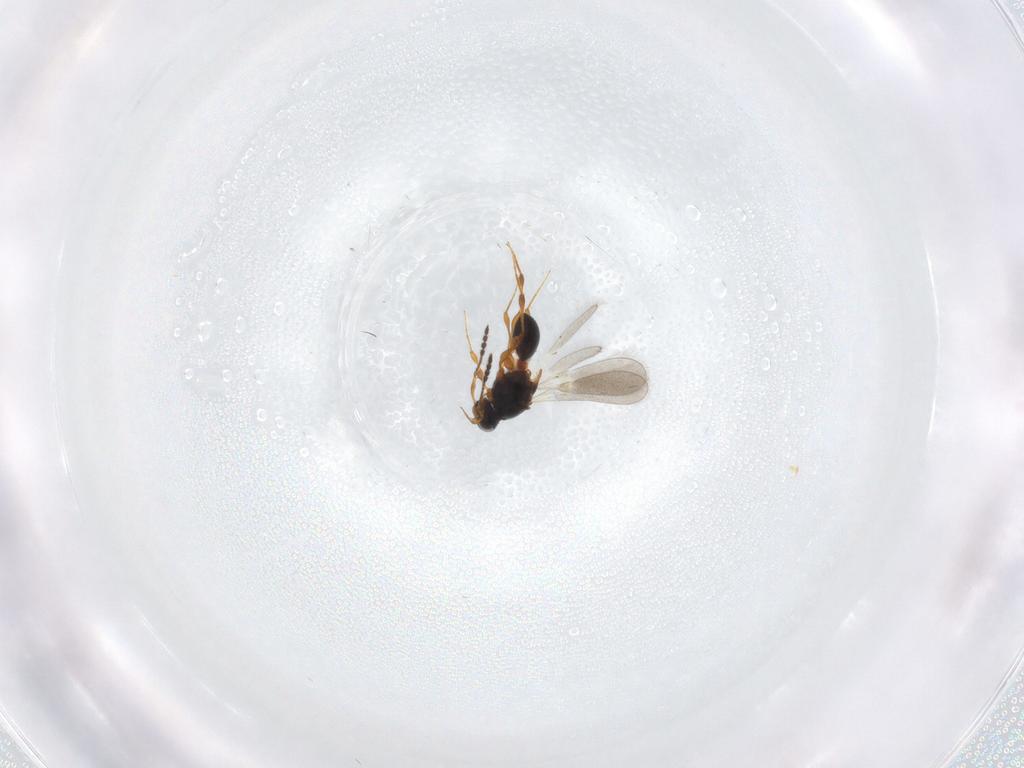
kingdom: Animalia
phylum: Arthropoda
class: Insecta
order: Hymenoptera
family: Platygastridae
